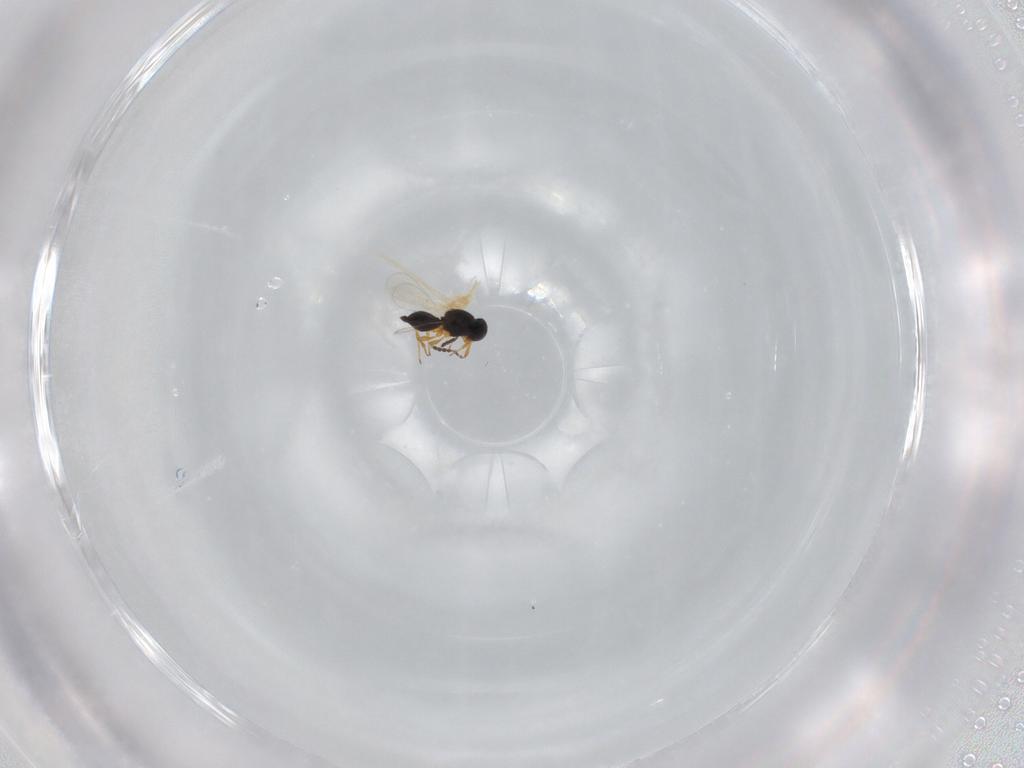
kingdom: Animalia
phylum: Arthropoda
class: Insecta
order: Hymenoptera
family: Platygastridae
